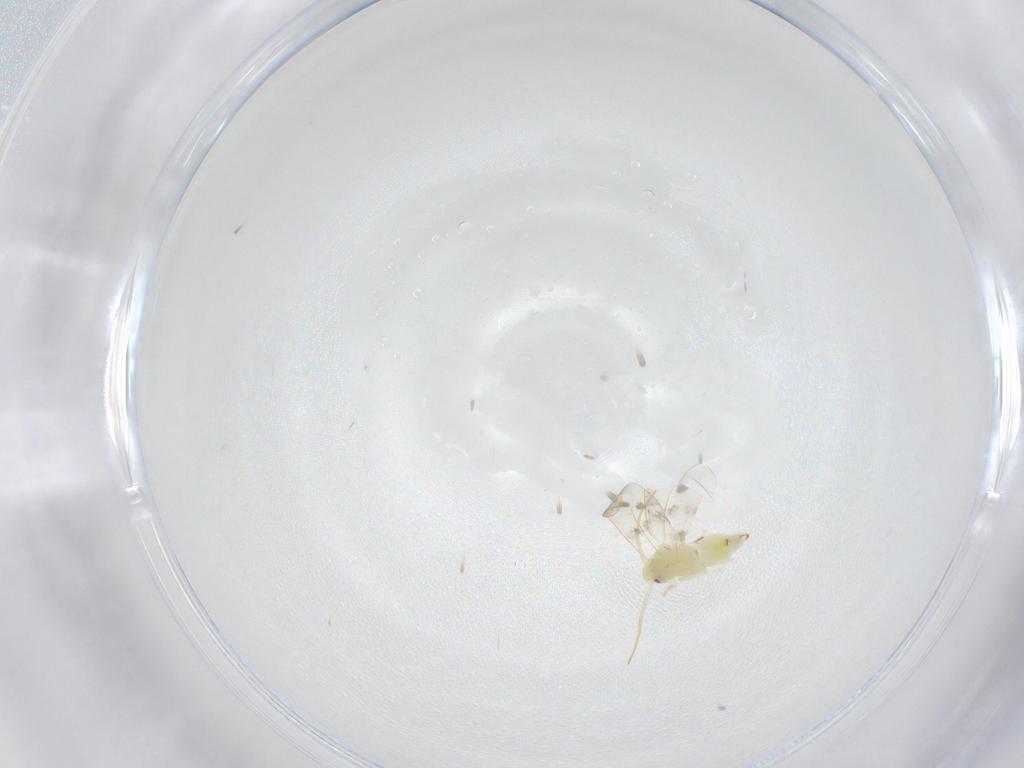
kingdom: Animalia
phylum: Arthropoda
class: Insecta
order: Hemiptera
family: Aleyrodidae
